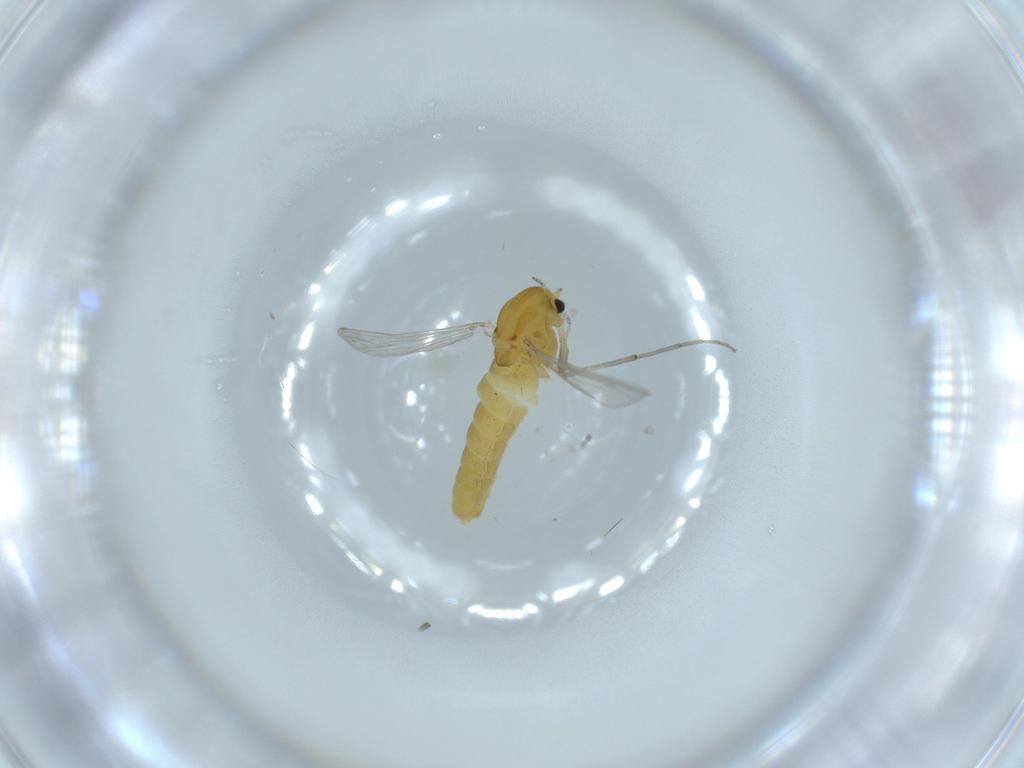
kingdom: Animalia
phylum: Arthropoda
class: Insecta
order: Diptera
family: Chironomidae
